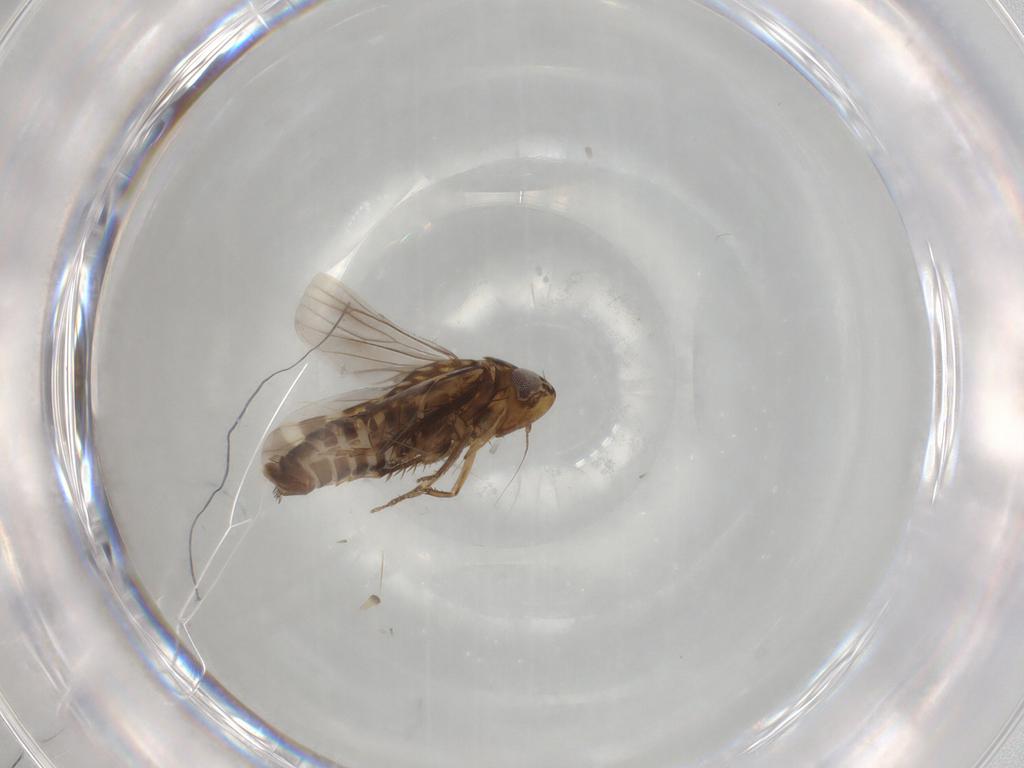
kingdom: Animalia
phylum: Arthropoda
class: Insecta
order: Hemiptera
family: Cicadellidae
